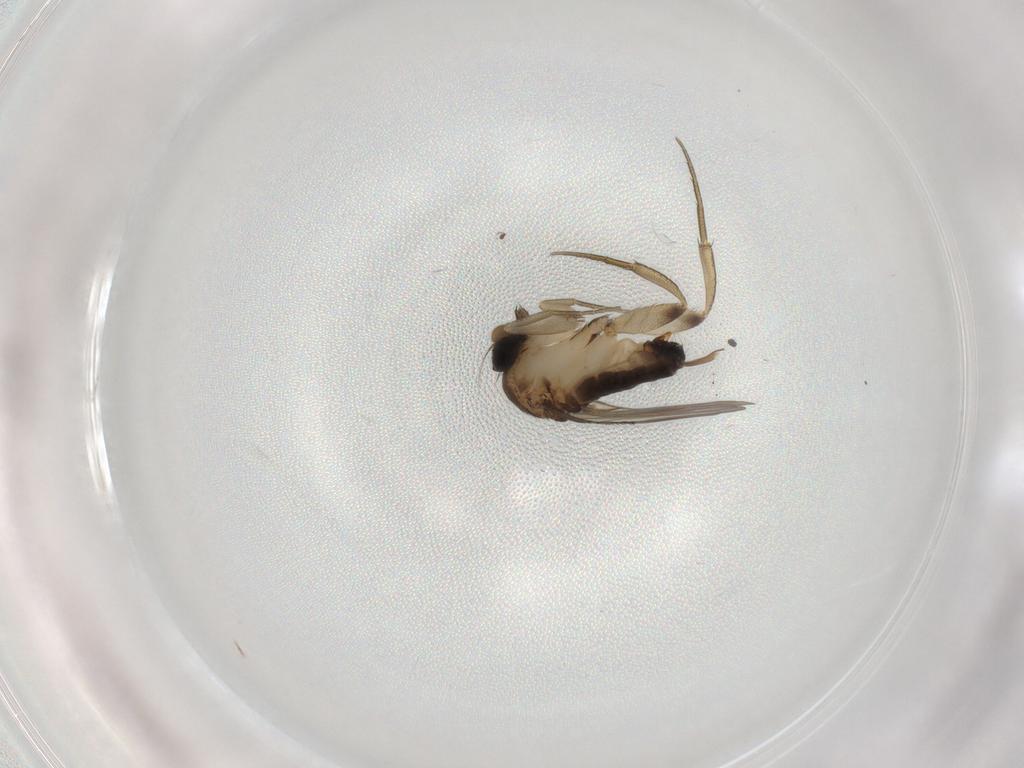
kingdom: Animalia
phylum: Arthropoda
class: Insecta
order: Diptera
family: Phoridae
